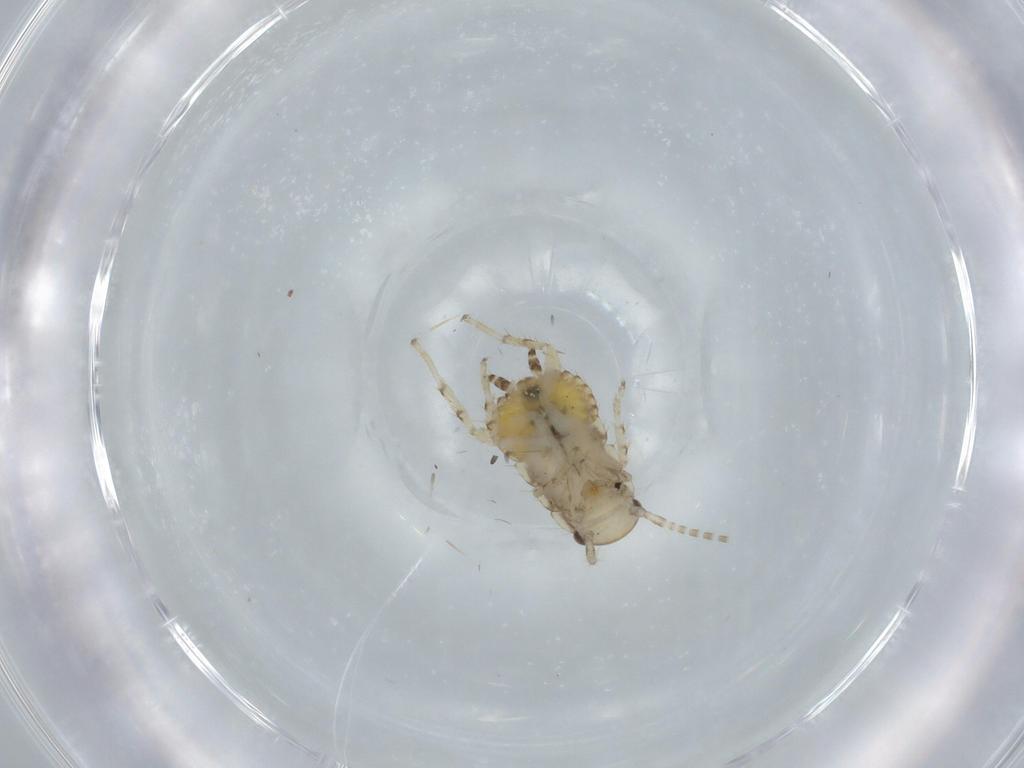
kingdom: Animalia
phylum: Arthropoda
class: Insecta
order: Blattodea
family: Ectobiidae
